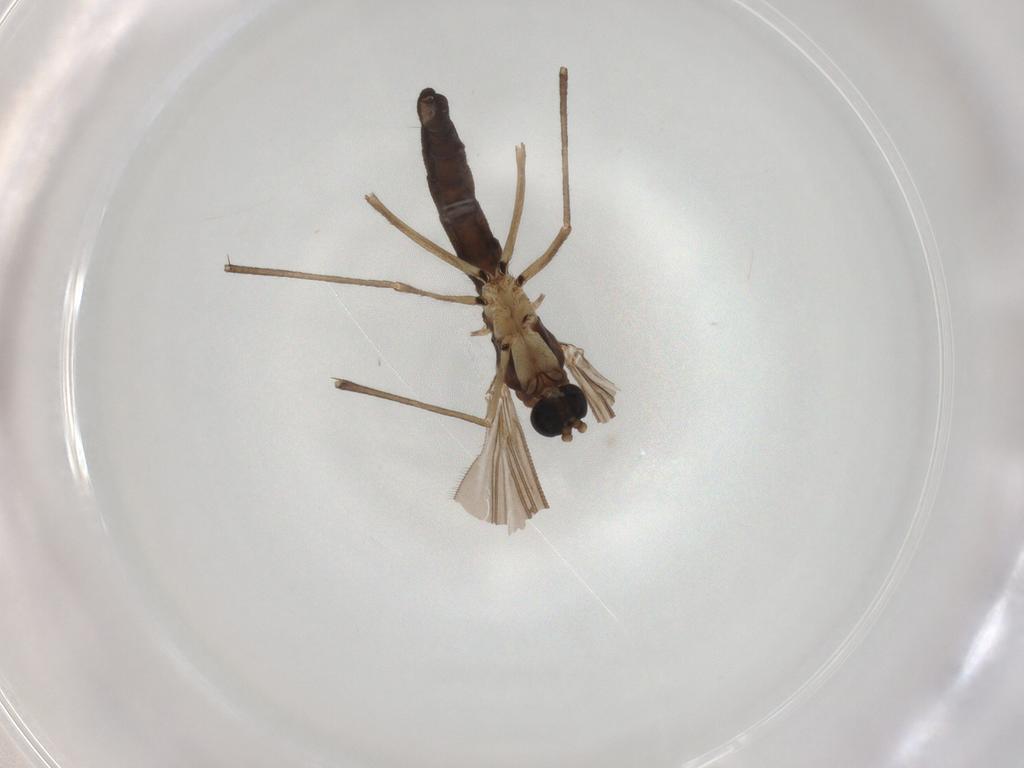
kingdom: Animalia
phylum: Arthropoda
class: Insecta
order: Diptera
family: Sciaridae
